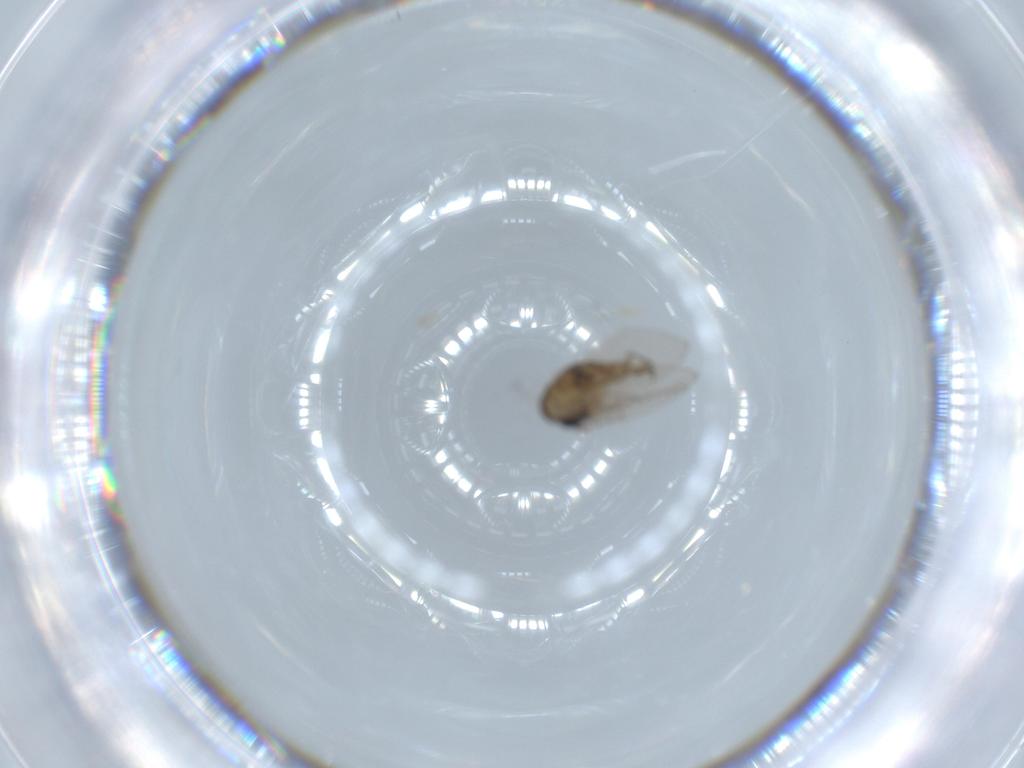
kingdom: Animalia
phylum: Arthropoda
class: Insecta
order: Diptera
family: Psychodidae
